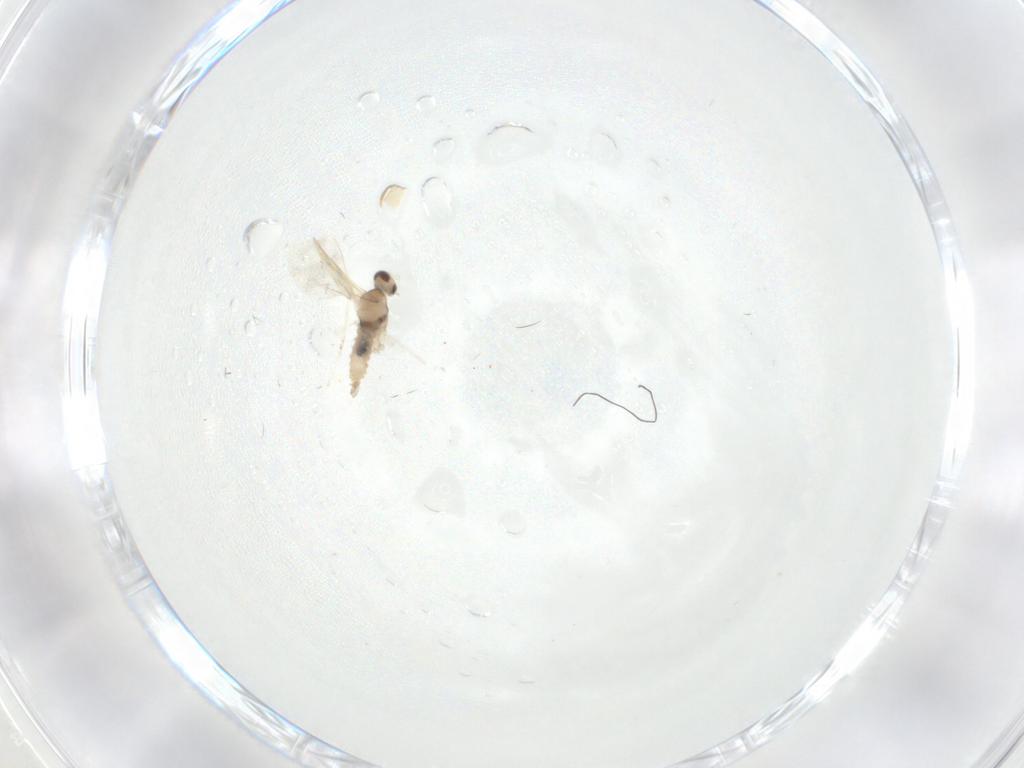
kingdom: Animalia
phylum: Arthropoda
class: Insecta
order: Diptera
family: Cecidomyiidae
